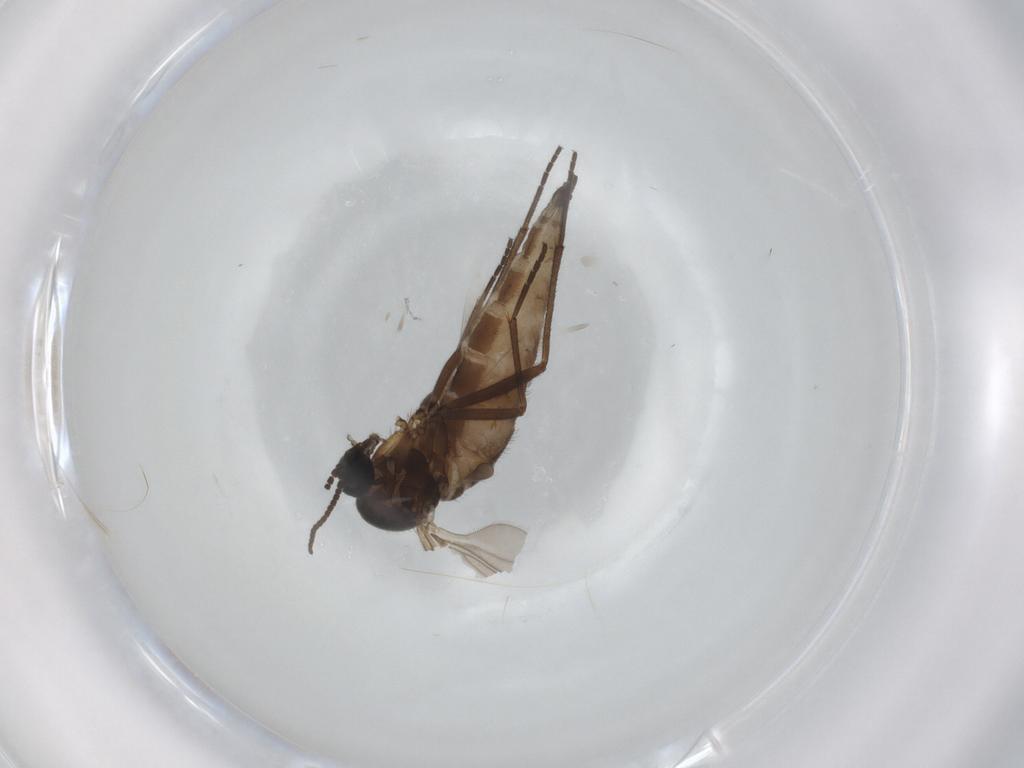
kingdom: Animalia
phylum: Arthropoda
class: Insecta
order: Diptera
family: Sciaridae
